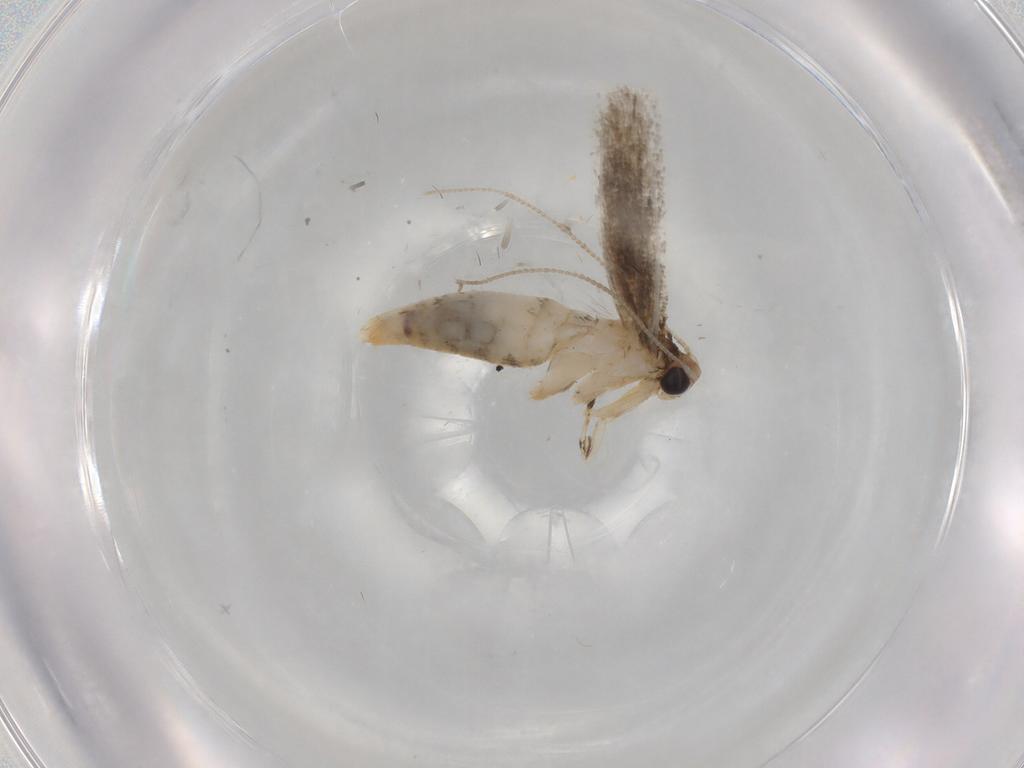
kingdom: Animalia
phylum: Arthropoda
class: Insecta
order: Lepidoptera
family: Tineidae
